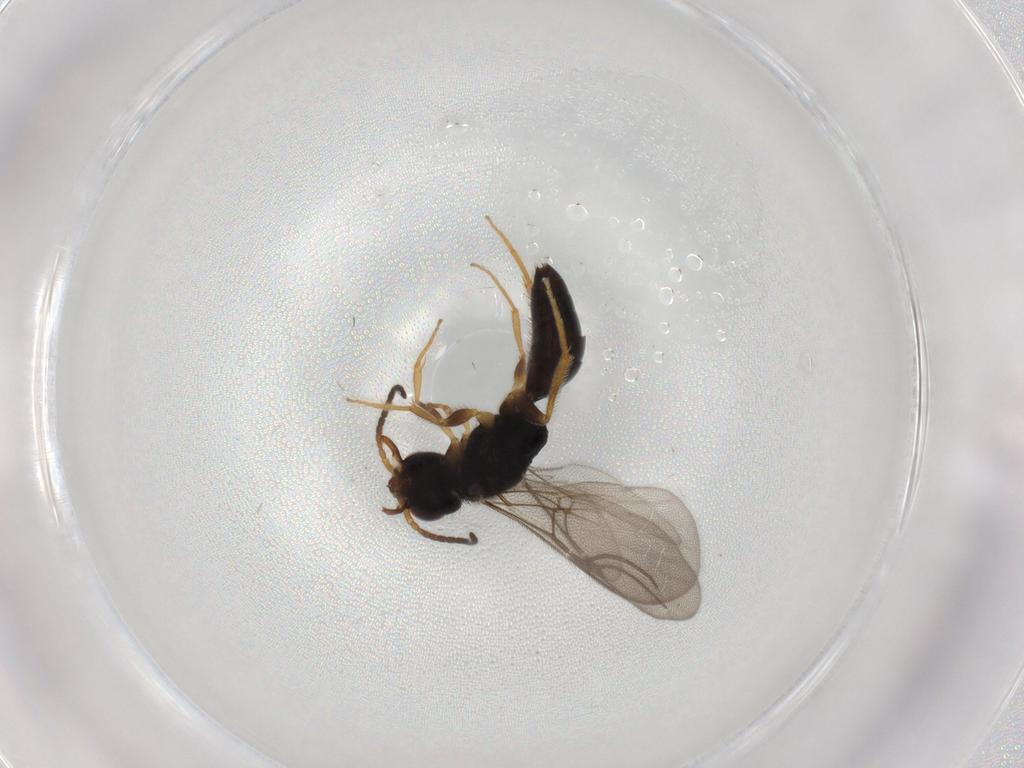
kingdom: Animalia
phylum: Arthropoda
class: Insecta
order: Hymenoptera
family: Bethylidae
